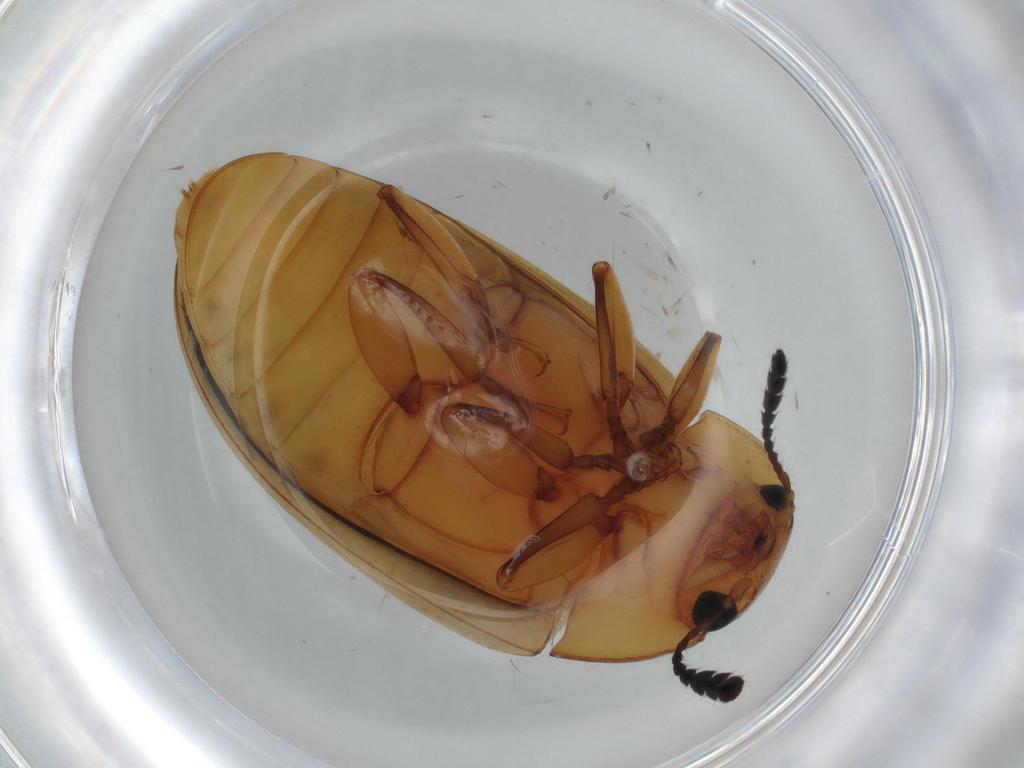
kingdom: Animalia
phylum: Arthropoda
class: Insecta
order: Coleoptera
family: Erotylidae
